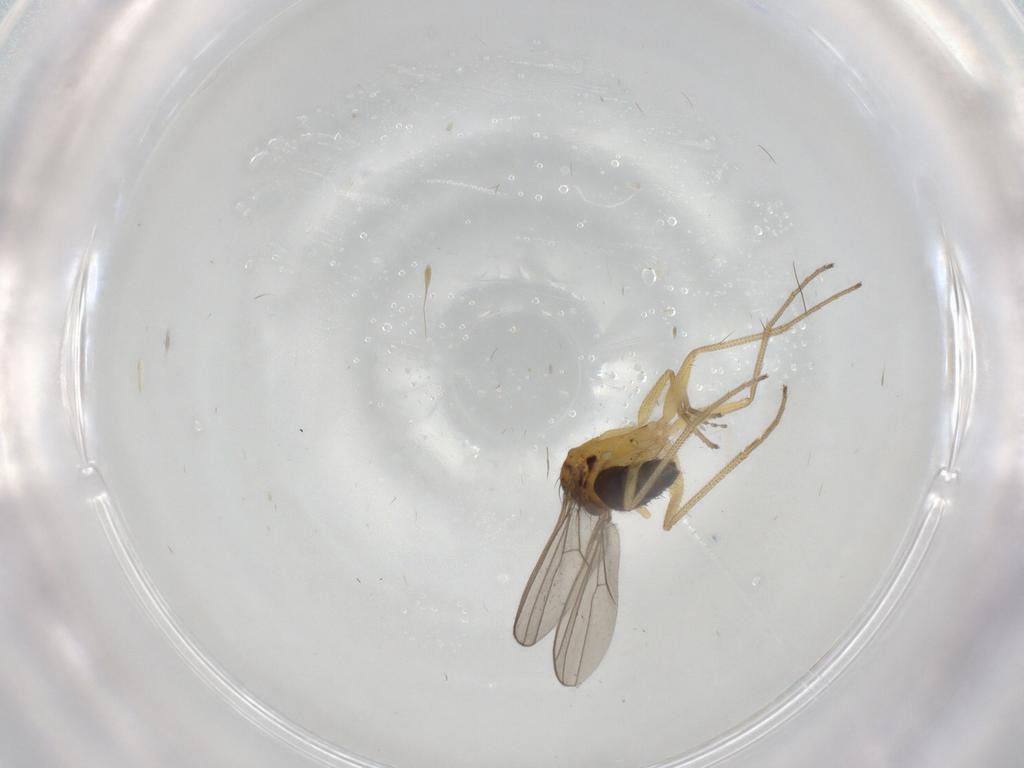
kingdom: Animalia
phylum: Arthropoda
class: Insecta
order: Diptera
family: Dolichopodidae
